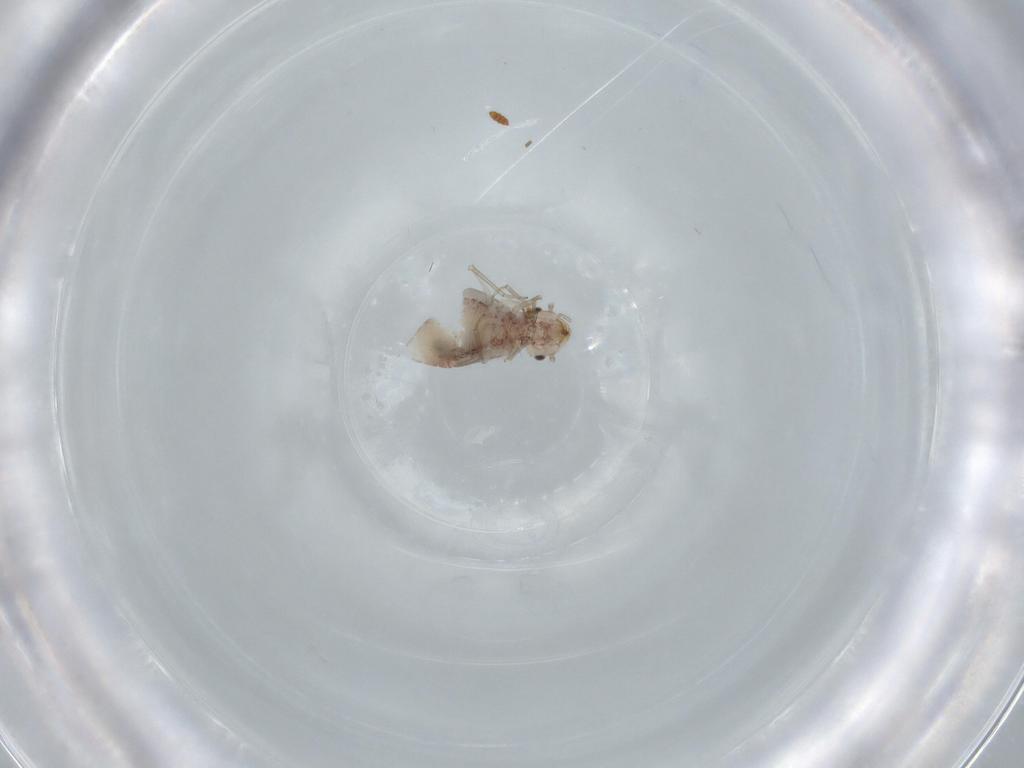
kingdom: Animalia
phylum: Arthropoda
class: Insecta
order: Psocodea
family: Ectopsocidae
